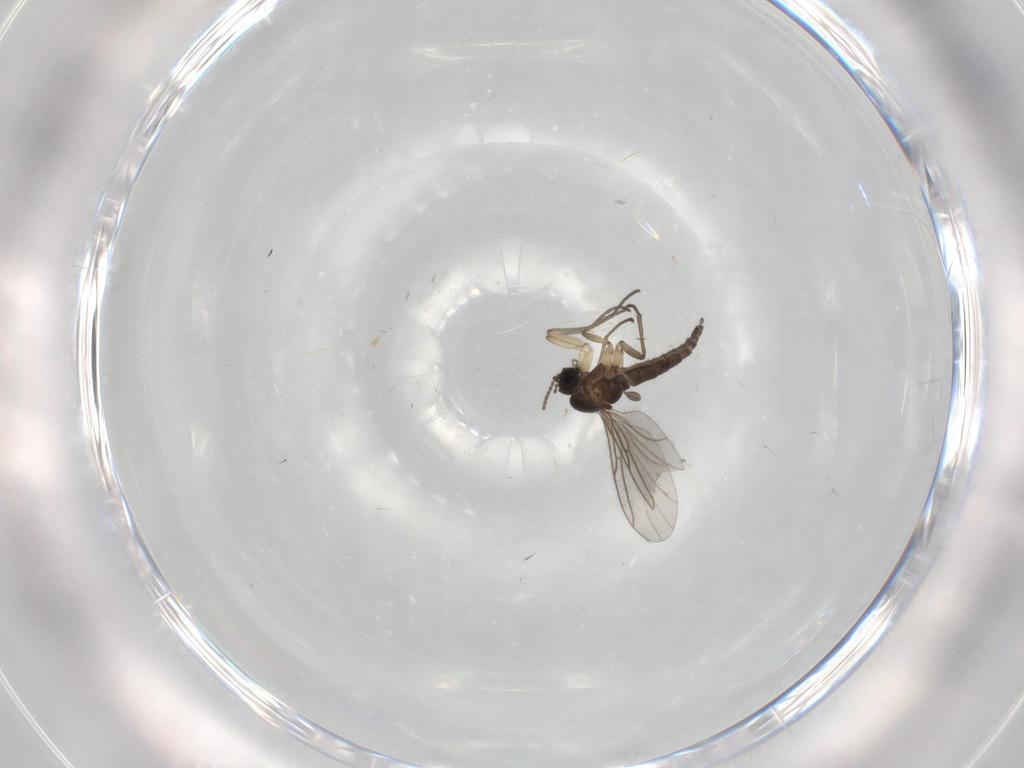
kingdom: Animalia
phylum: Arthropoda
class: Insecta
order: Diptera
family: Sciaridae
